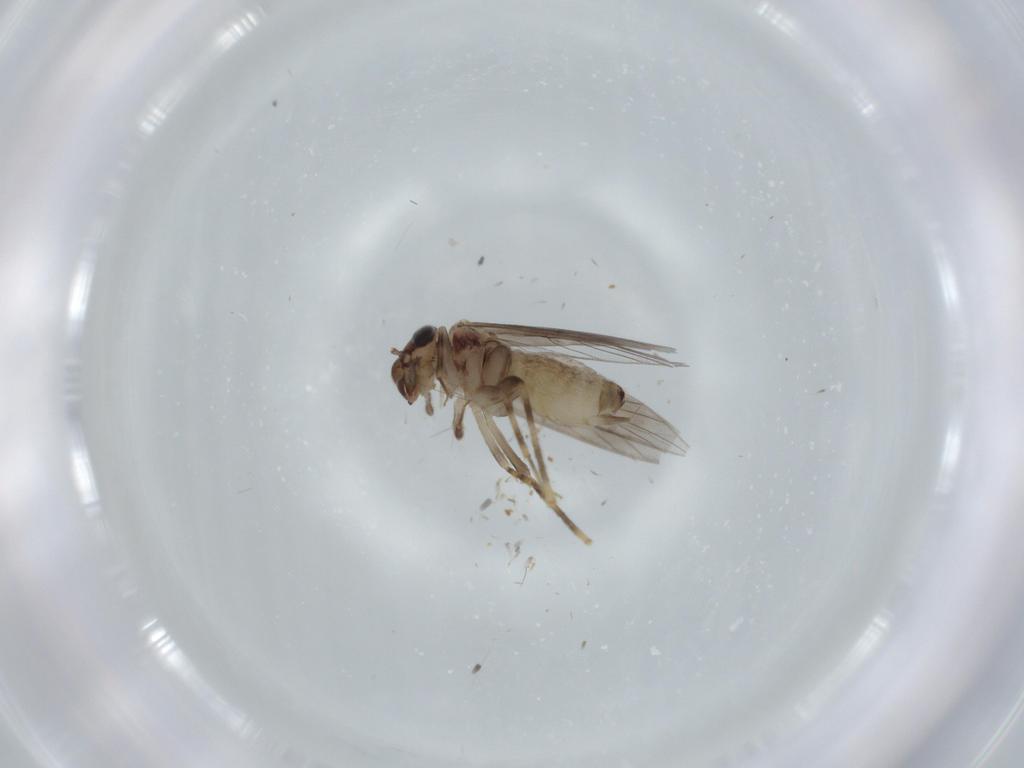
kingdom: Animalia
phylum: Arthropoda
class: Insecta
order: Psocodea
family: Lepidopsocidae
